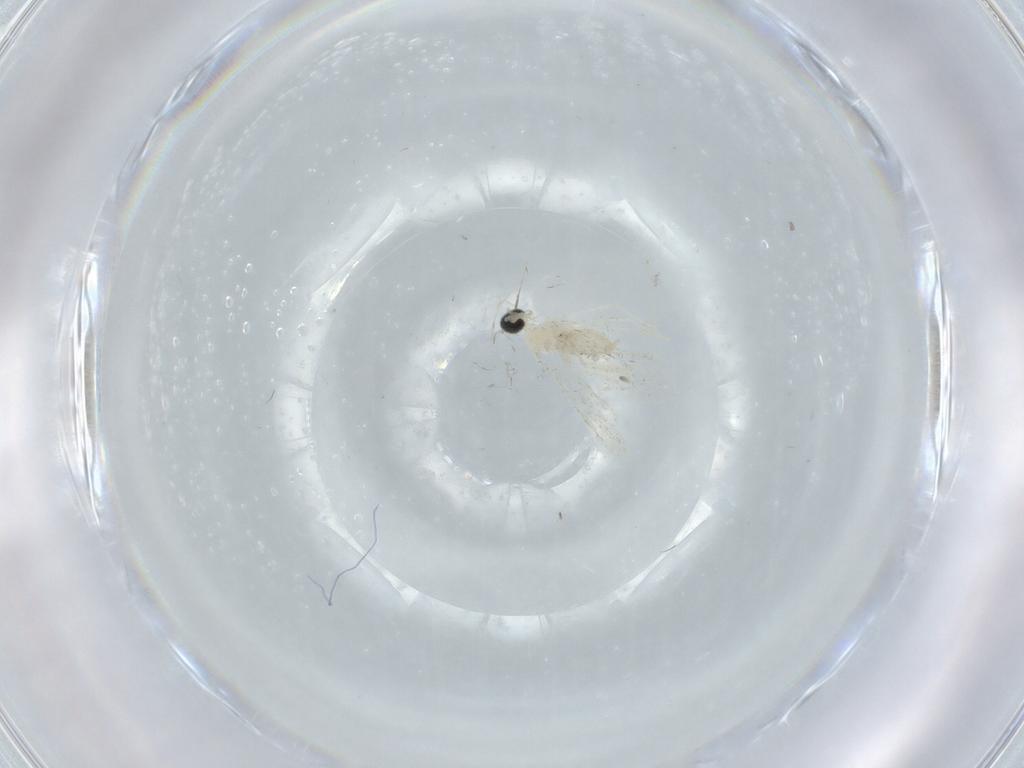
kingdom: Animalia
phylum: Arthropoda
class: Insecta
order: Diptera
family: Cecidomyiidae
